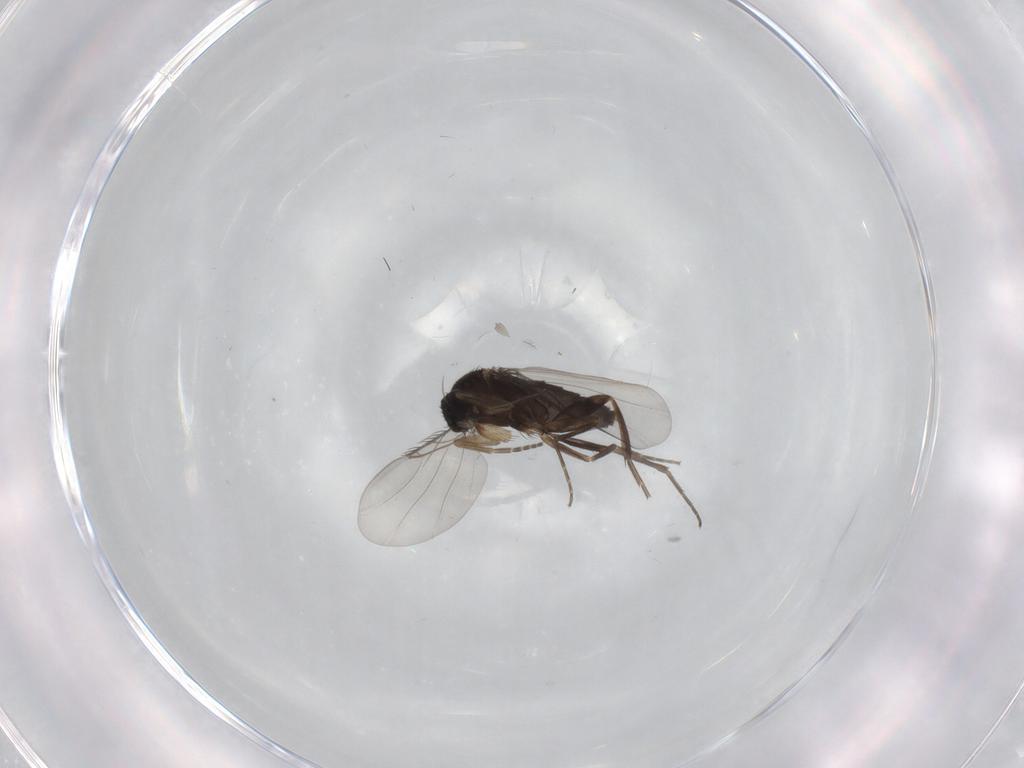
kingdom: Animalia
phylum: Arthropoda
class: Insecta
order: Diptera
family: Phoridae
